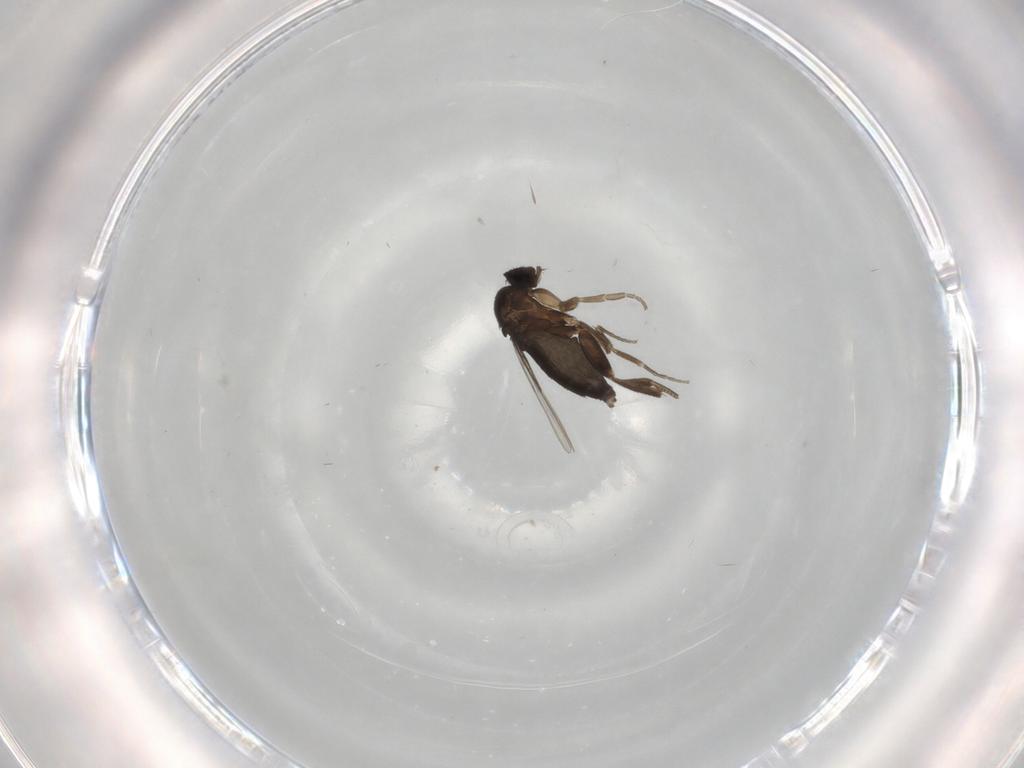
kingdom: Animalia
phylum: Arthropoda
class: Insecta
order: Diptera
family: Phoridae
